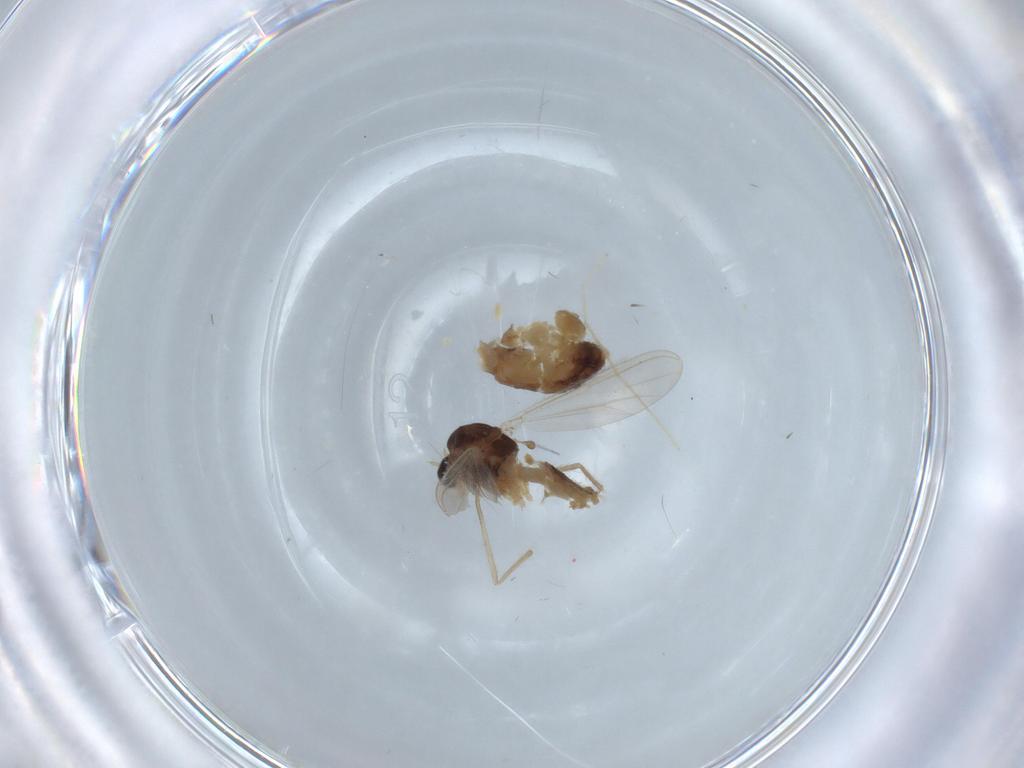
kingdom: Animalia
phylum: Arthropoda
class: Insecta
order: Diptera
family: Chironomidae
